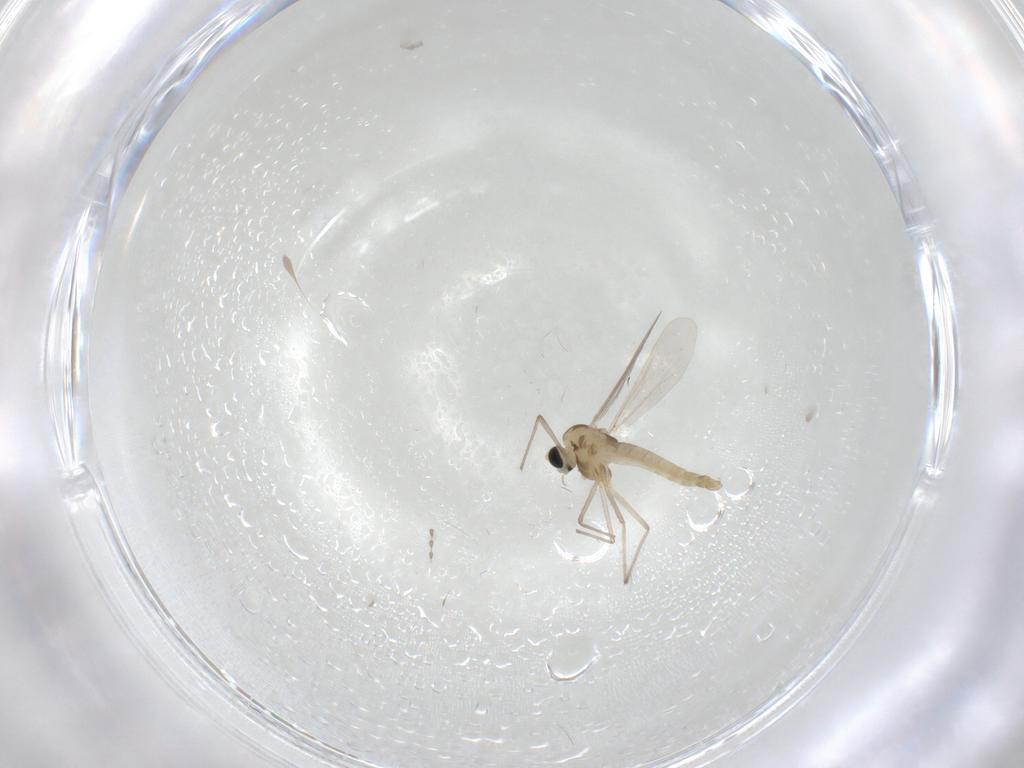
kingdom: Animalia
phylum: Arthropoda
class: Insecta
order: Diptera
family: Chironomidae
